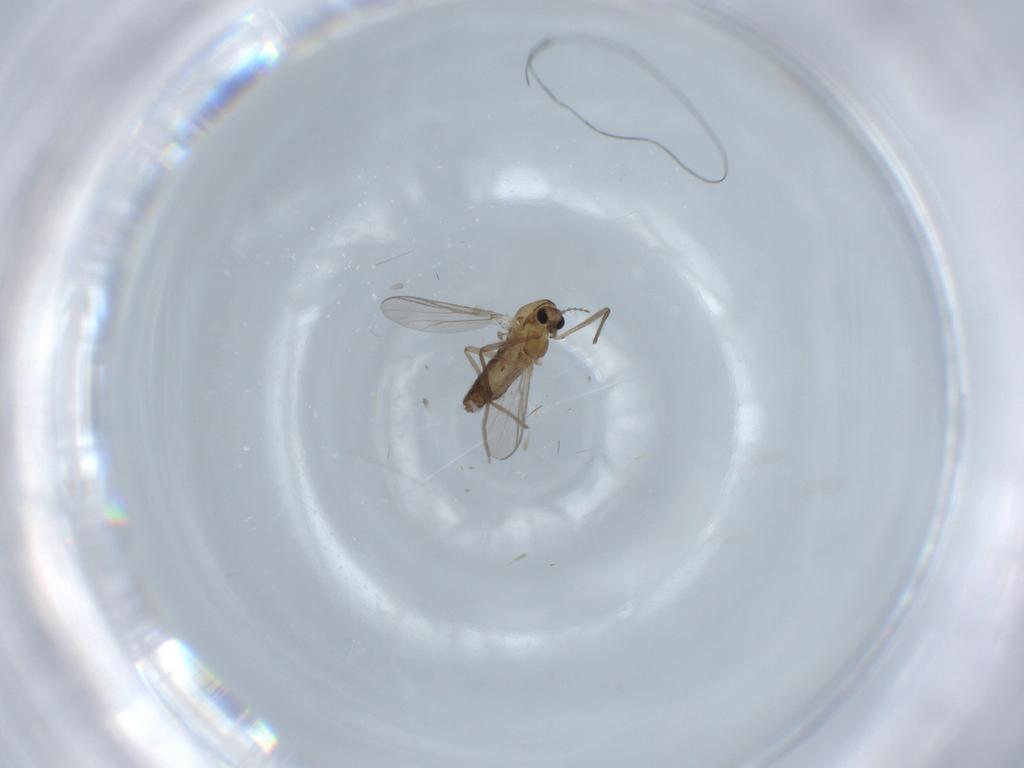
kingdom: Animalia
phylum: Arthropoda
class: Insecta
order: Diptera
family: Chironomidae
